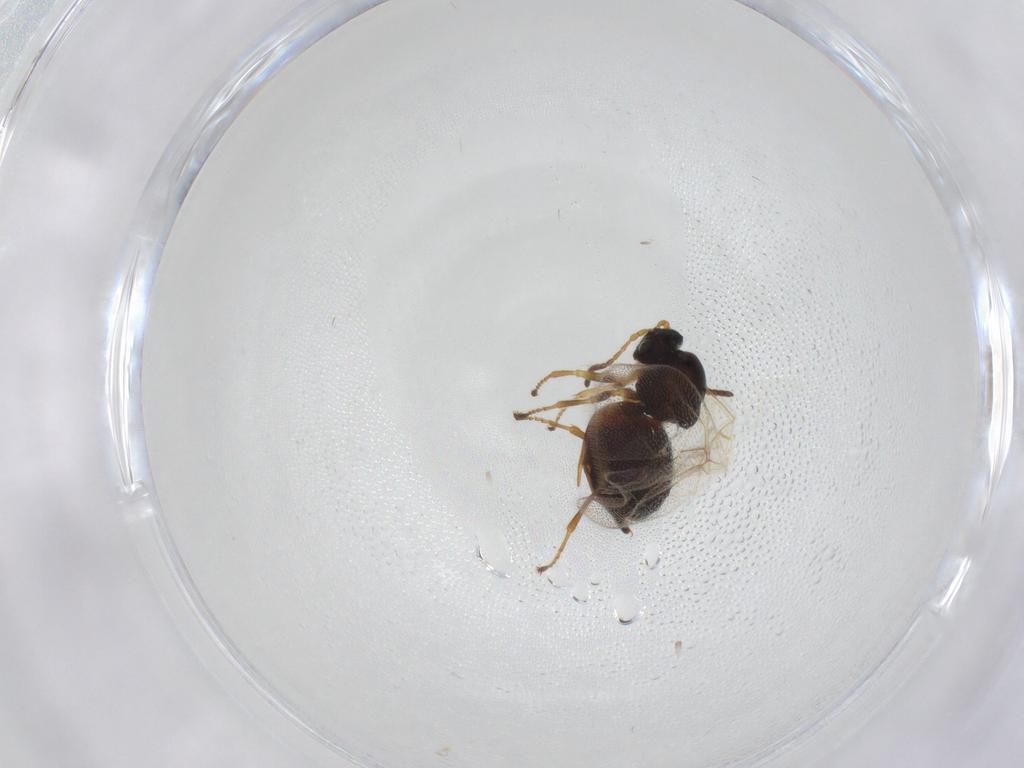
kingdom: Animalia
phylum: Arthropoda
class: Insecta
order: Hymenoptera
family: Cynipidae
